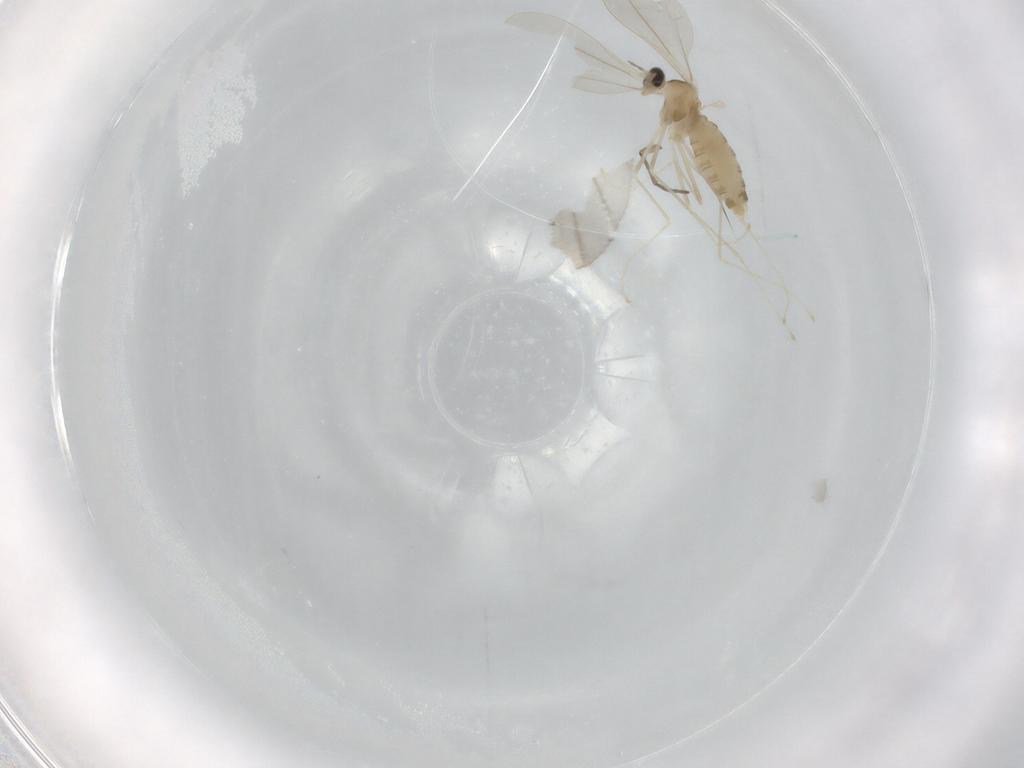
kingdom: Animalia
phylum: Arthropoda
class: Insecta
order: Diptera
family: Cecidomyiidae
